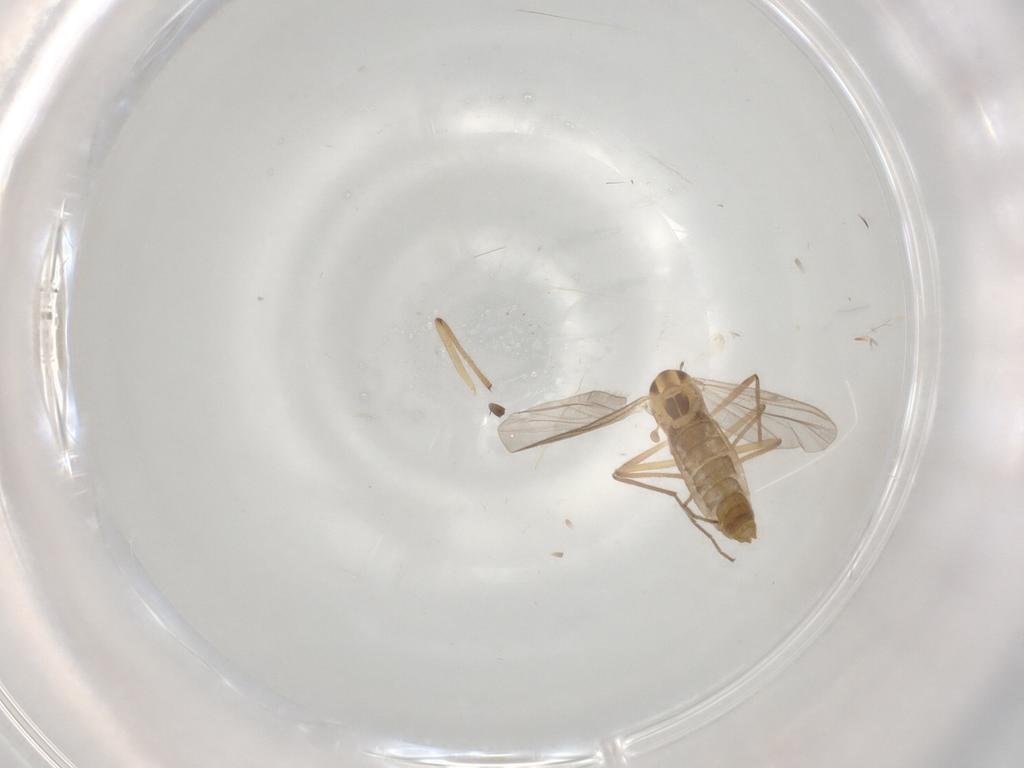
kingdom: Animalia
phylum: Arthropoda
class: Insecta
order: Diptera
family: Chironomidae
